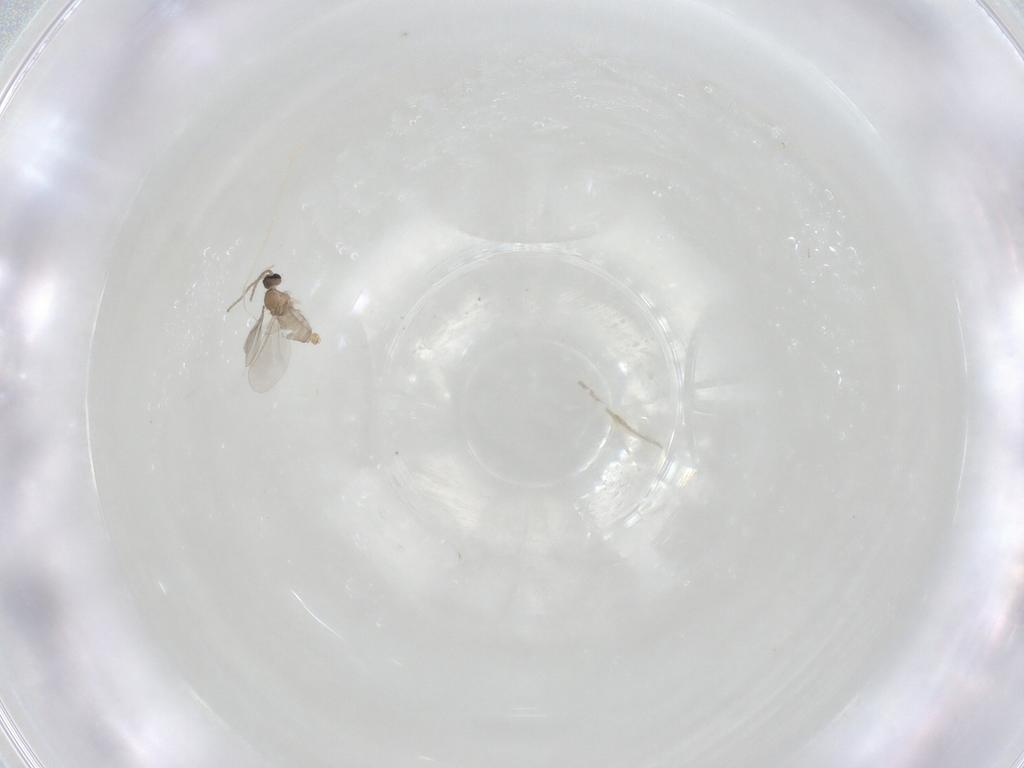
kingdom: Animalia
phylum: Arthropoda
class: Insecta
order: Diptera
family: Cecidomyiidae
